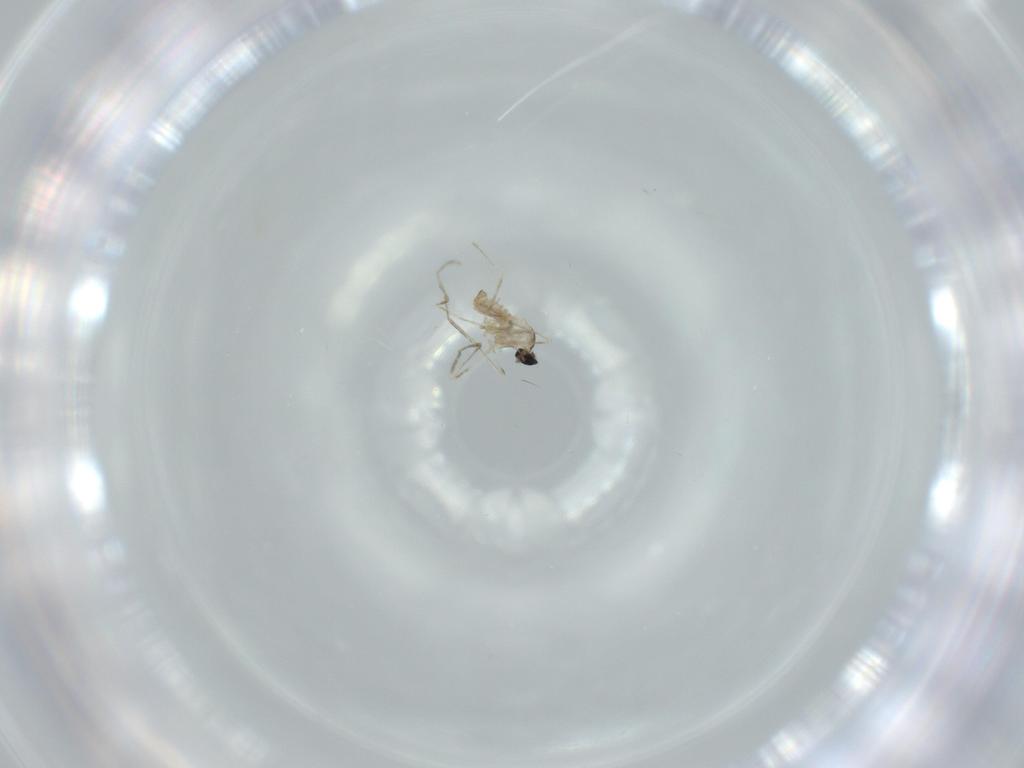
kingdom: Animalia
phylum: Arthropoda
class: Insecta
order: Diptera
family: Cecidomyiidae
